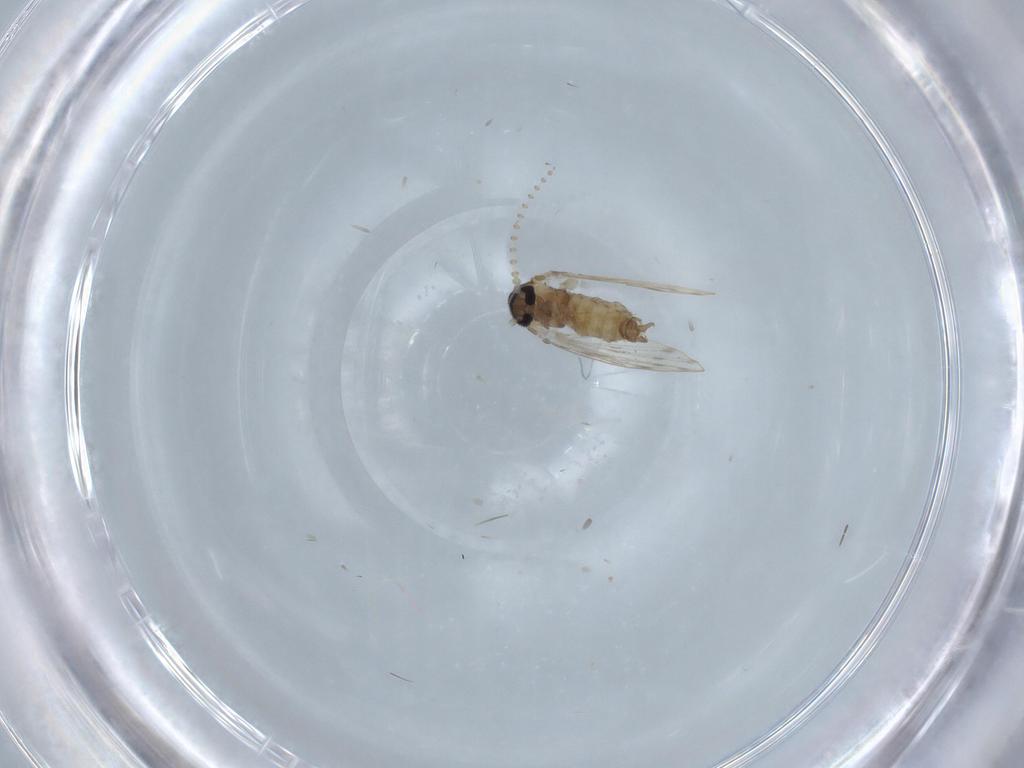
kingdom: Animalia
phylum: Arthropoda
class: Insecta
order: Diptera
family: Psychodidae
